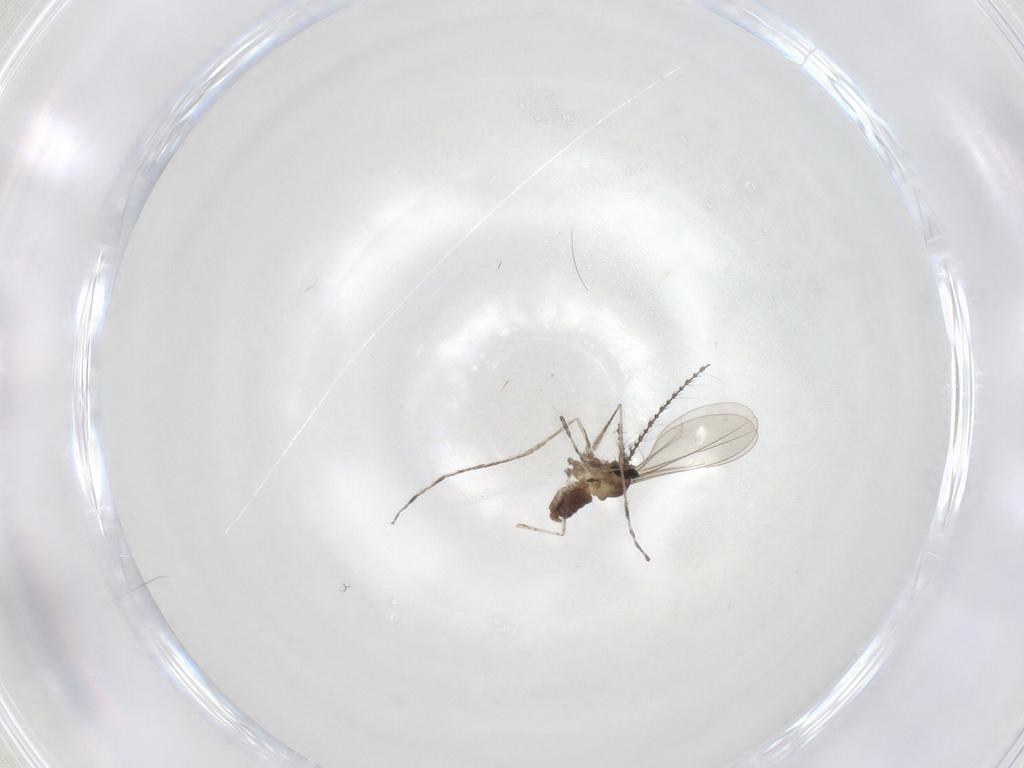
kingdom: Animalia
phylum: Arthropoda
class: Insecta
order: Diptera
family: Cecidomyiidae
